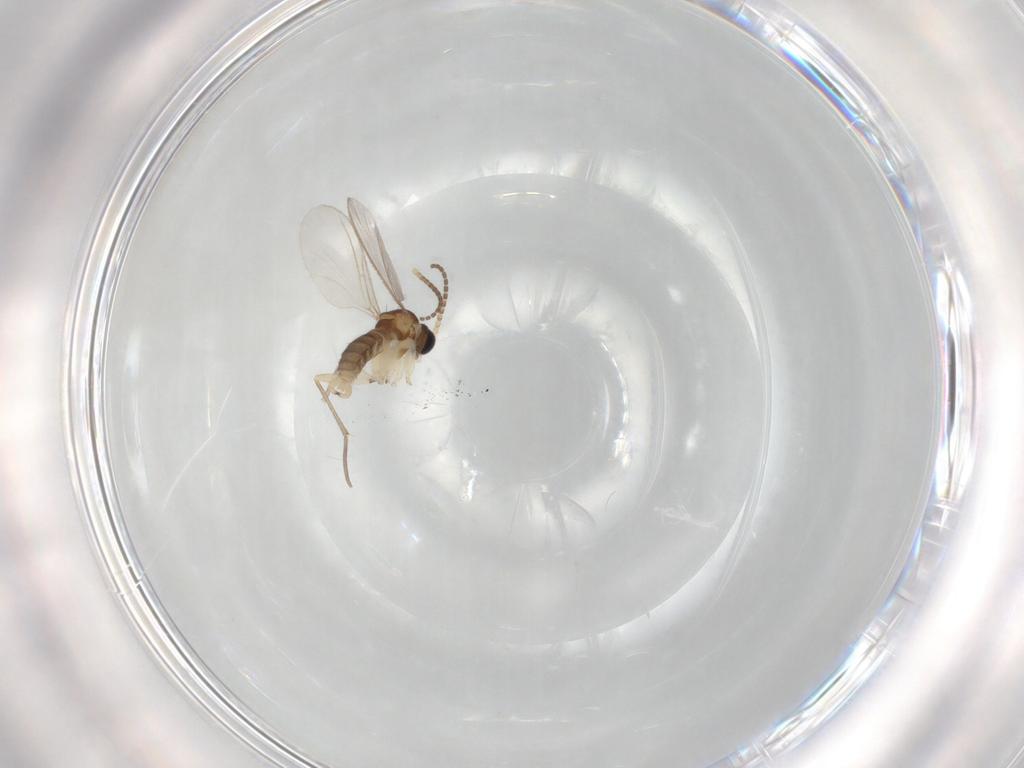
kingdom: Animalia
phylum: Arthropoda
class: Insecta
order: Diptera
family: Sciaridae
